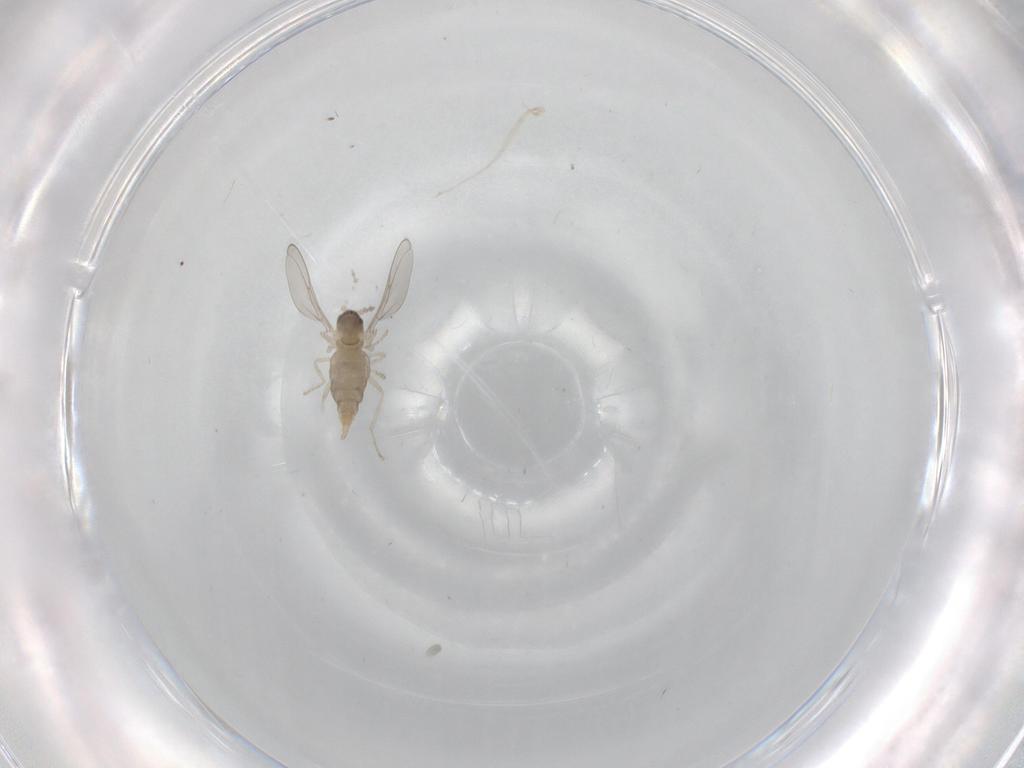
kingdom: Animalia
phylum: Arthropoda
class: Insecta
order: Diptera
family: Cecidomyiidae
